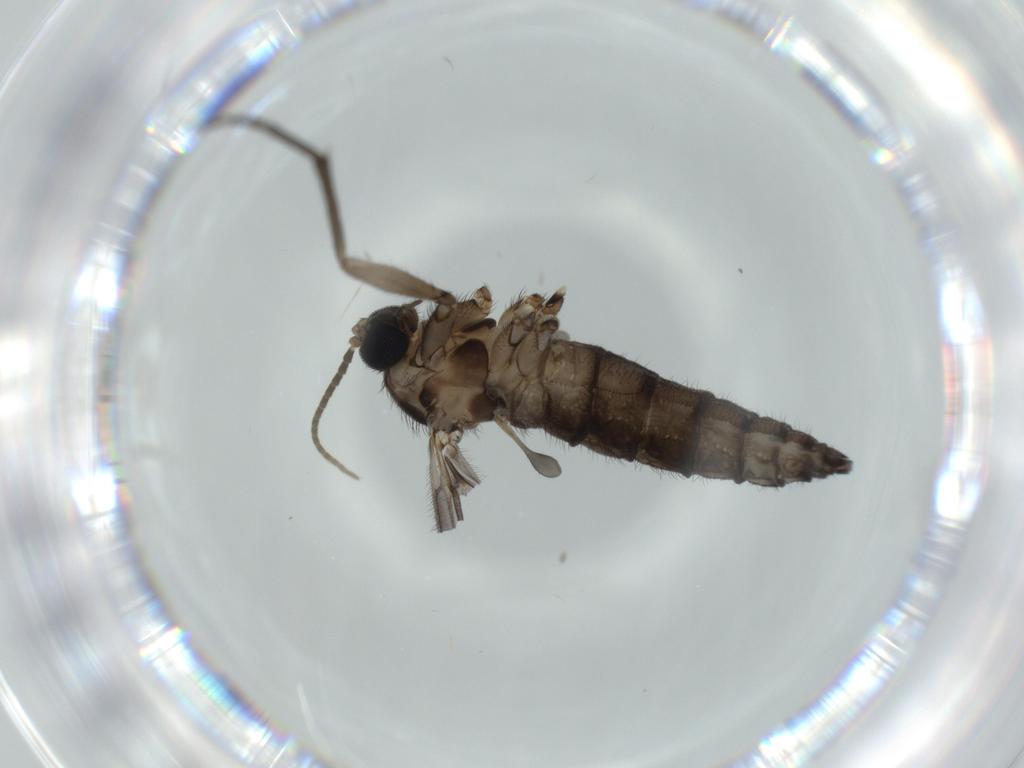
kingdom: Animalia
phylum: Arthropoda
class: Insecta
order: Diptera
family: Sciaridae
